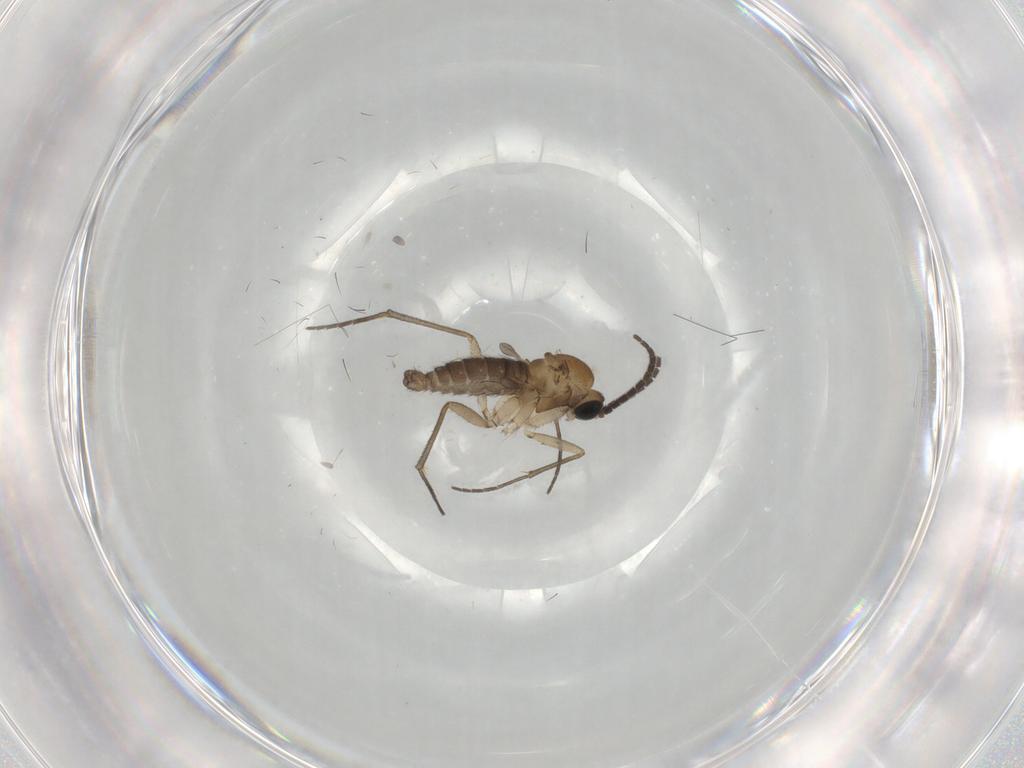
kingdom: Animalia
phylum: Arthropoda
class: Insecta
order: Diptera
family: Sciaridae
